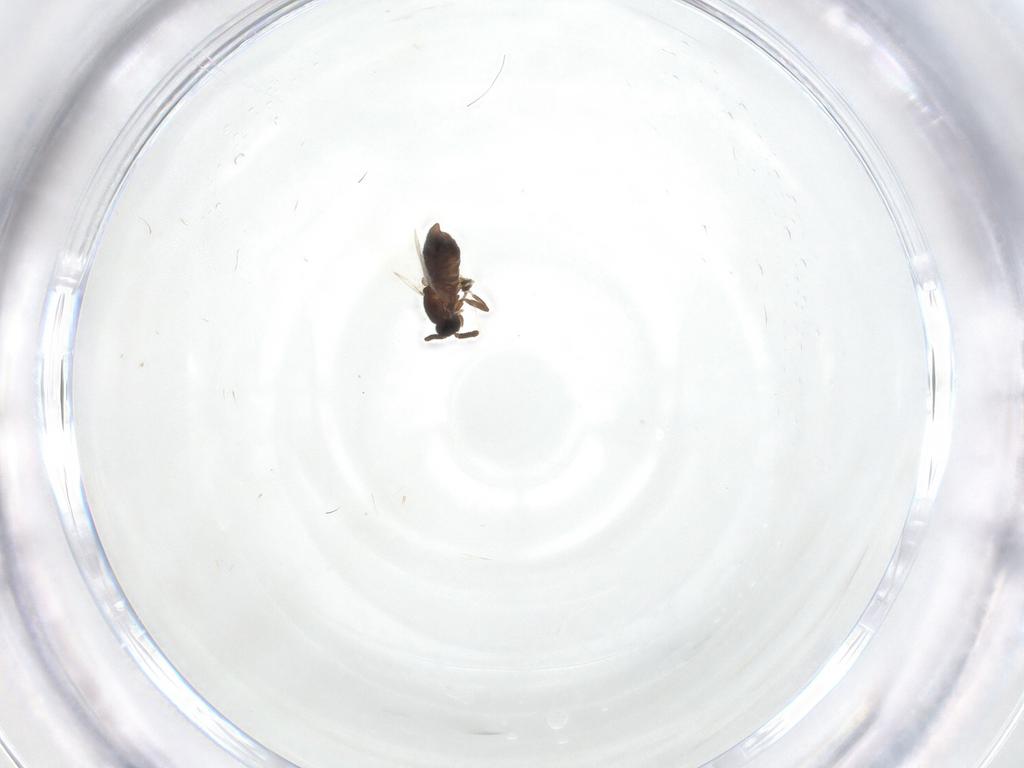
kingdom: Animalia
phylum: Arthropoda
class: Insecta
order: Diptera
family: Scatopsidae
